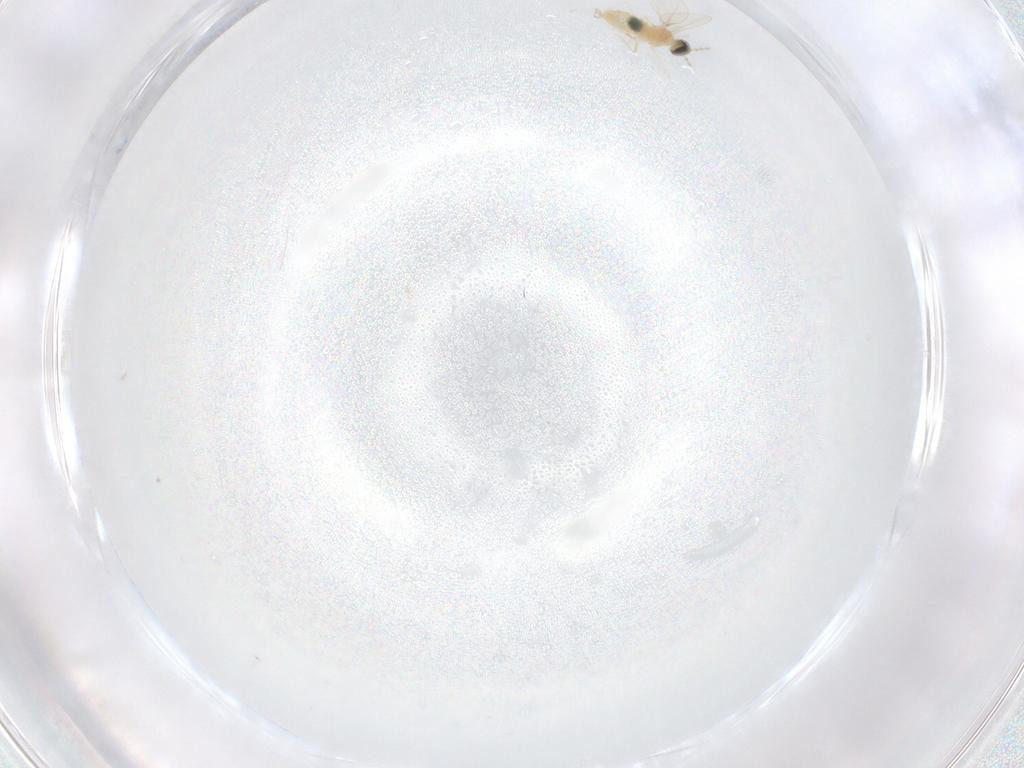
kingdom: Animalia
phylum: Arthropoda
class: Insecta
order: Diptera
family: Cecidomyiidae
